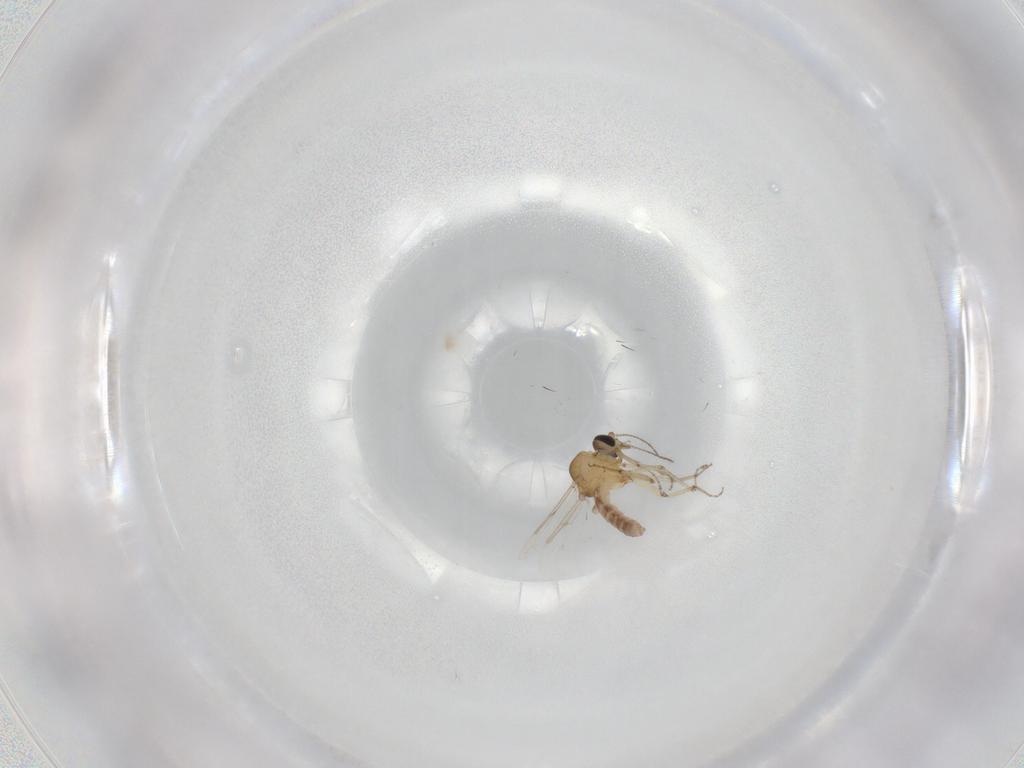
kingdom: Animalia
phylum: Arthropoda
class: Insecta
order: Diptera
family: Ceratopogonidae
